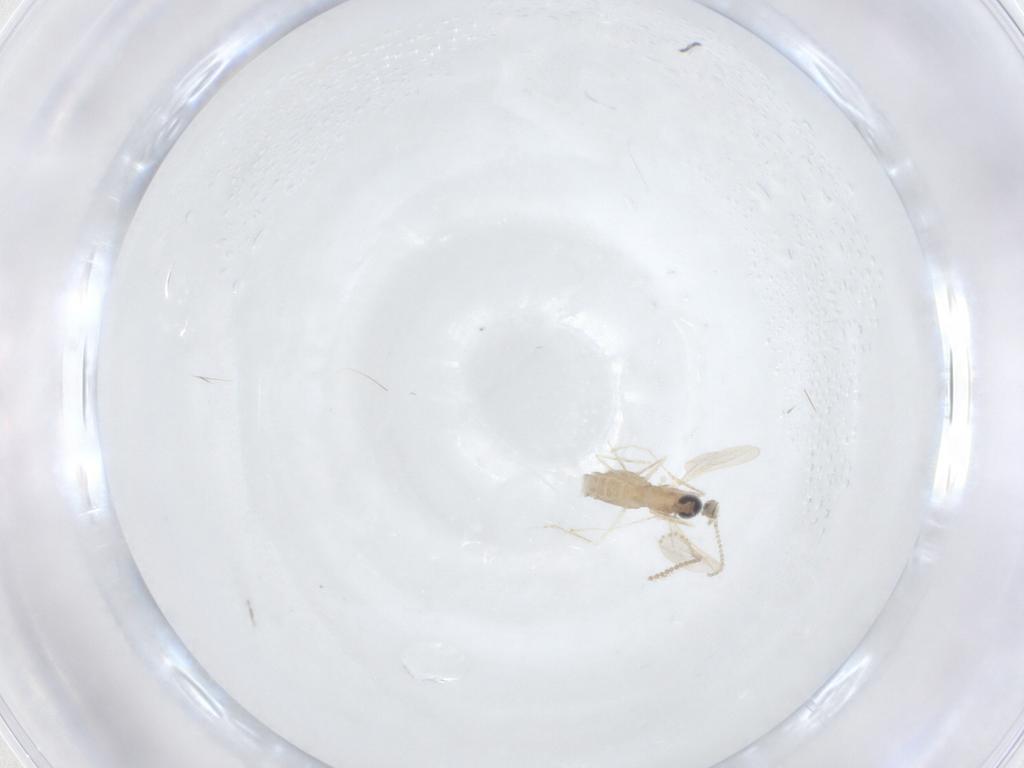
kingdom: Animalia
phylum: Arthropoda
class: Insecta
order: Diptera
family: Cecidomyiidae
